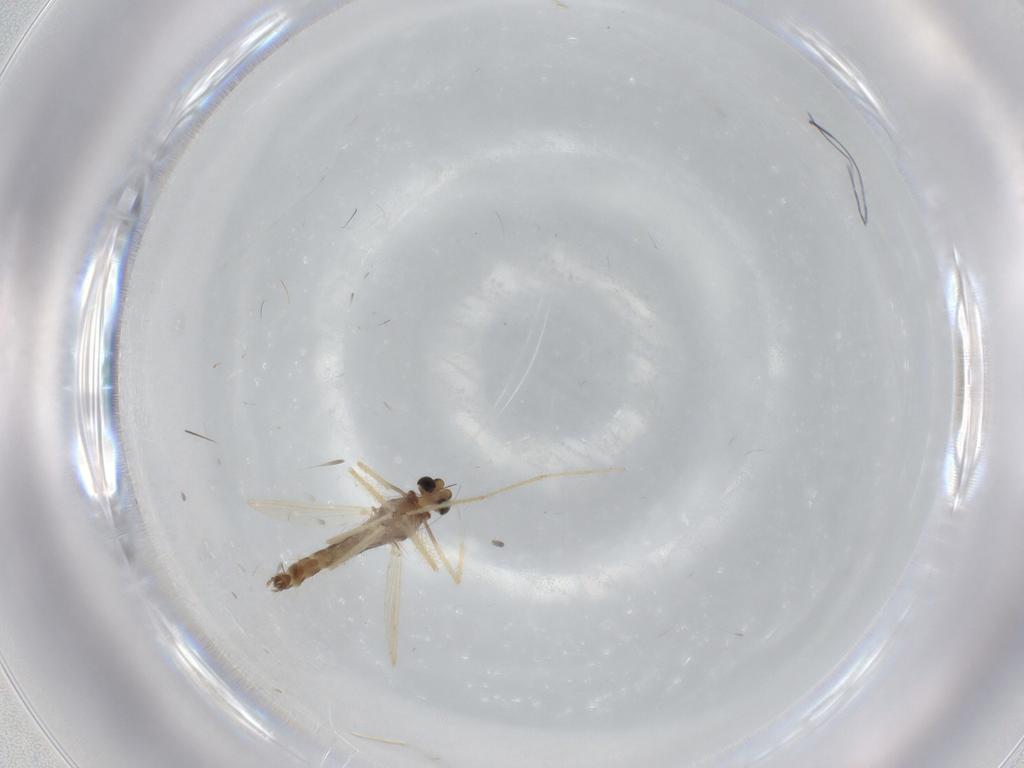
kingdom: Animalia
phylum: Arthropoda
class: Insecta
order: Diptera
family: Chironomidae
